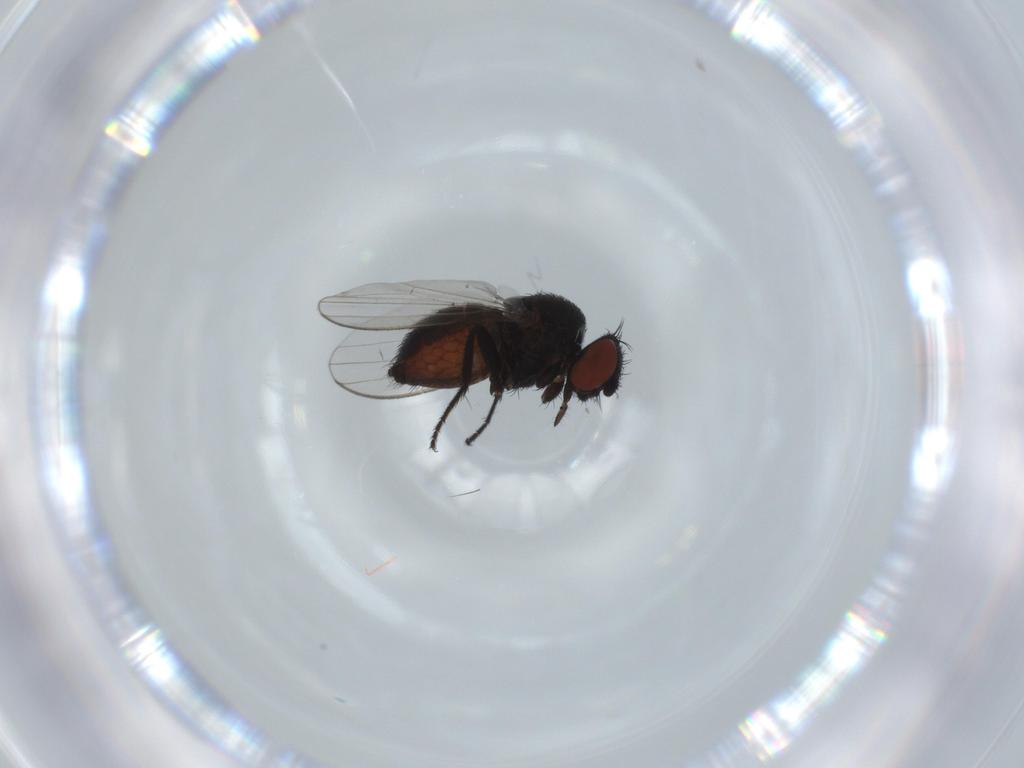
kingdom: Animalia
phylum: Arthropoda
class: Insecta
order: Diptera
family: Milichiidae
